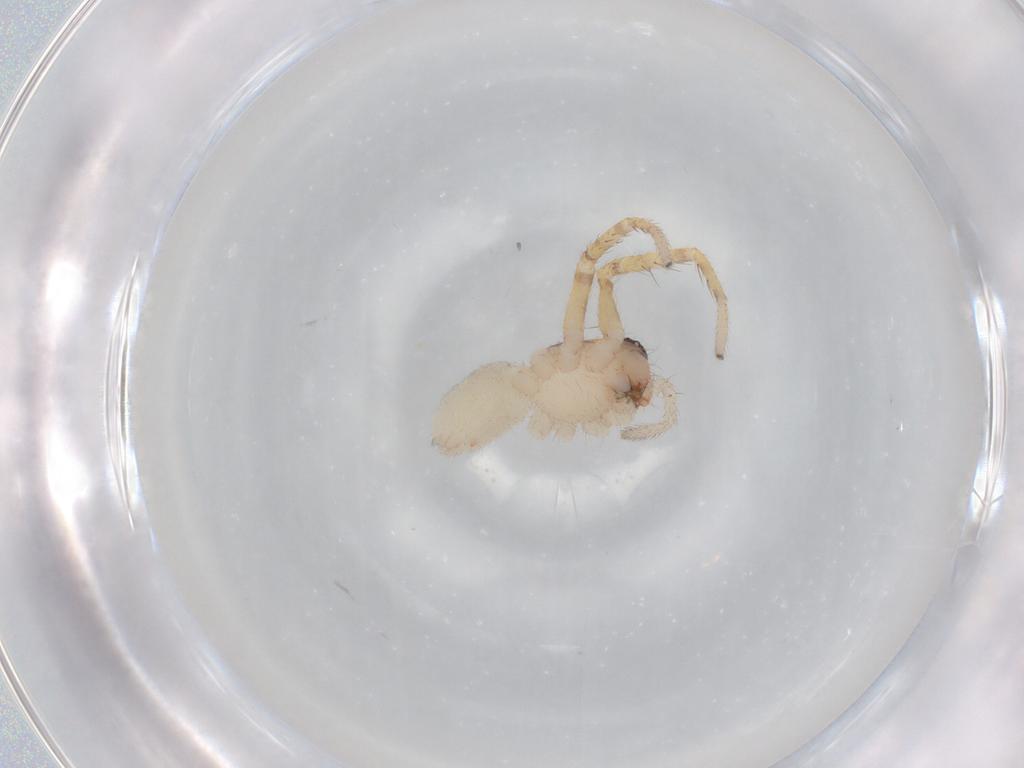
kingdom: Animalia
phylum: Arthropoda
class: Arachnida
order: Araneae
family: Corinnidae
